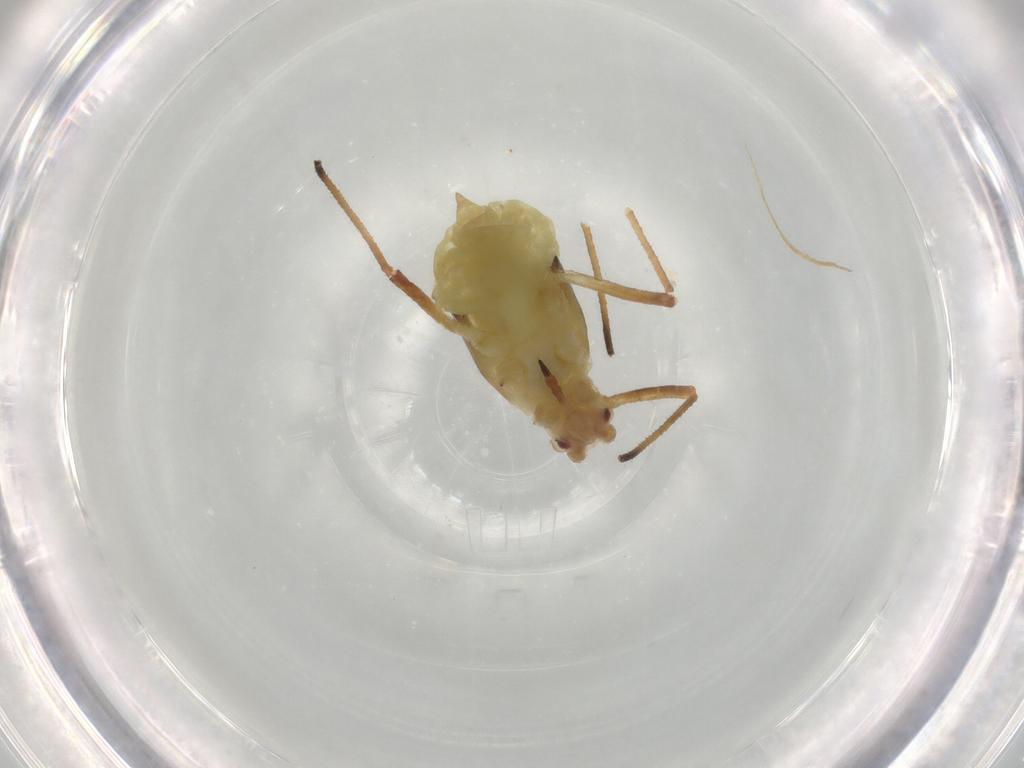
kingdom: Animalia
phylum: Arthropoda
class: Insecta
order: Hemiptera
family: Aphididae
